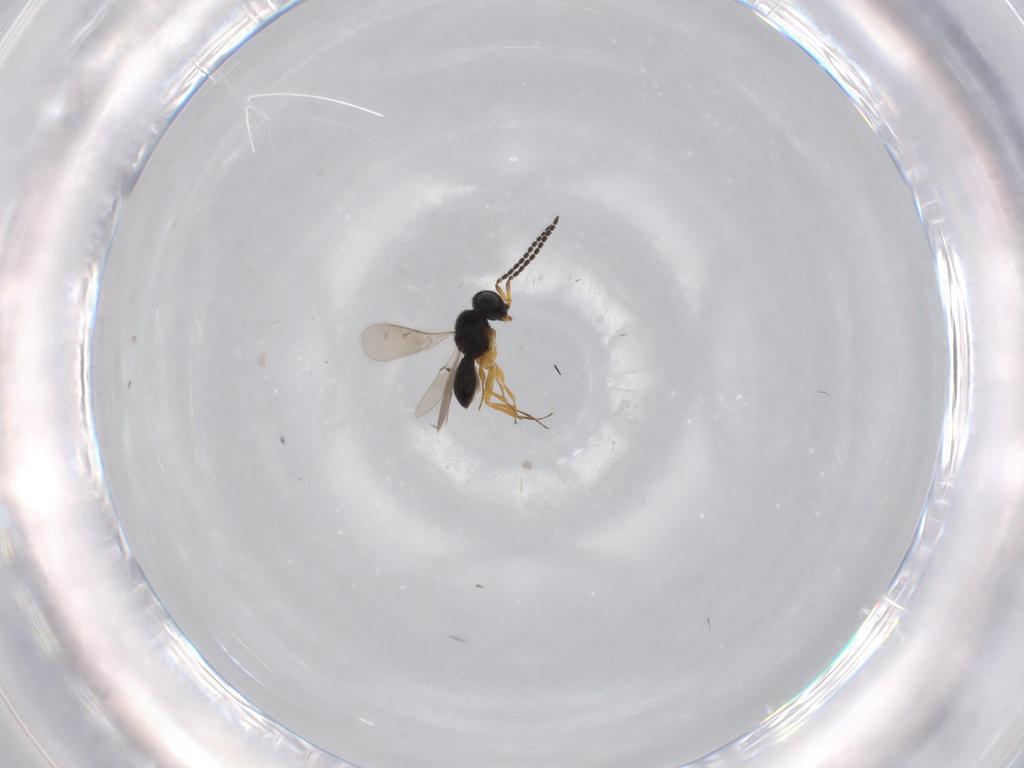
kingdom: Animalia
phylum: Arthropoda
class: Insecta
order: Hymenoptera
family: Scelionidae
